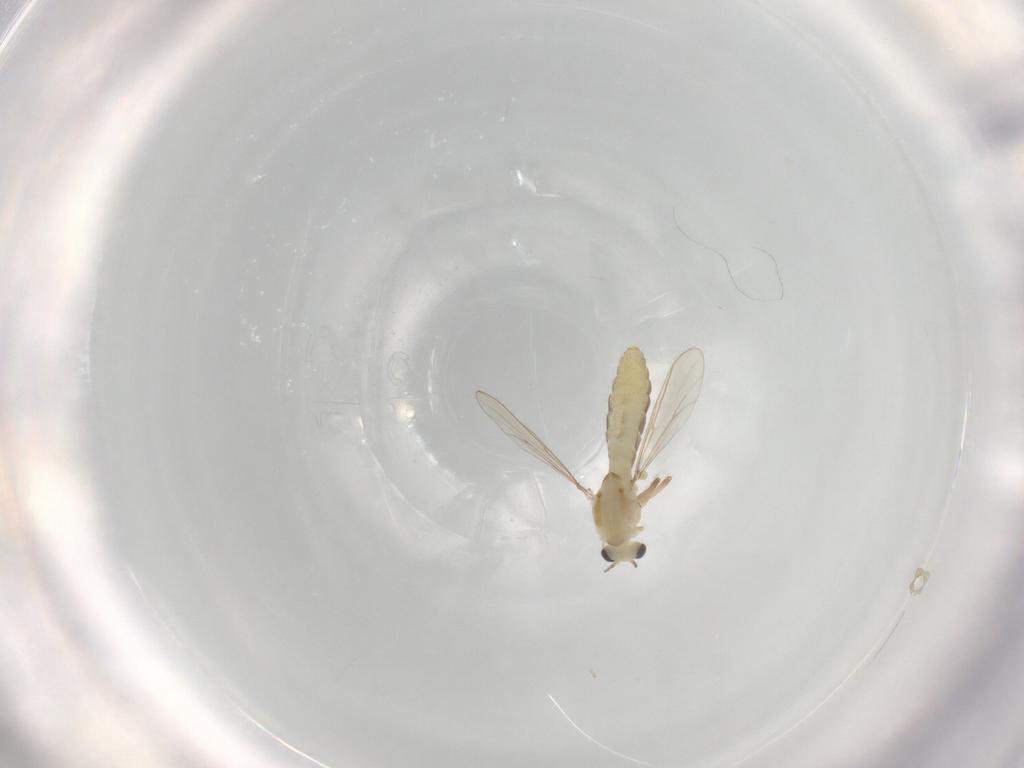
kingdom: Animalia
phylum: Arthropoda
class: Insecta
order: Diptera
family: Chironomidae
